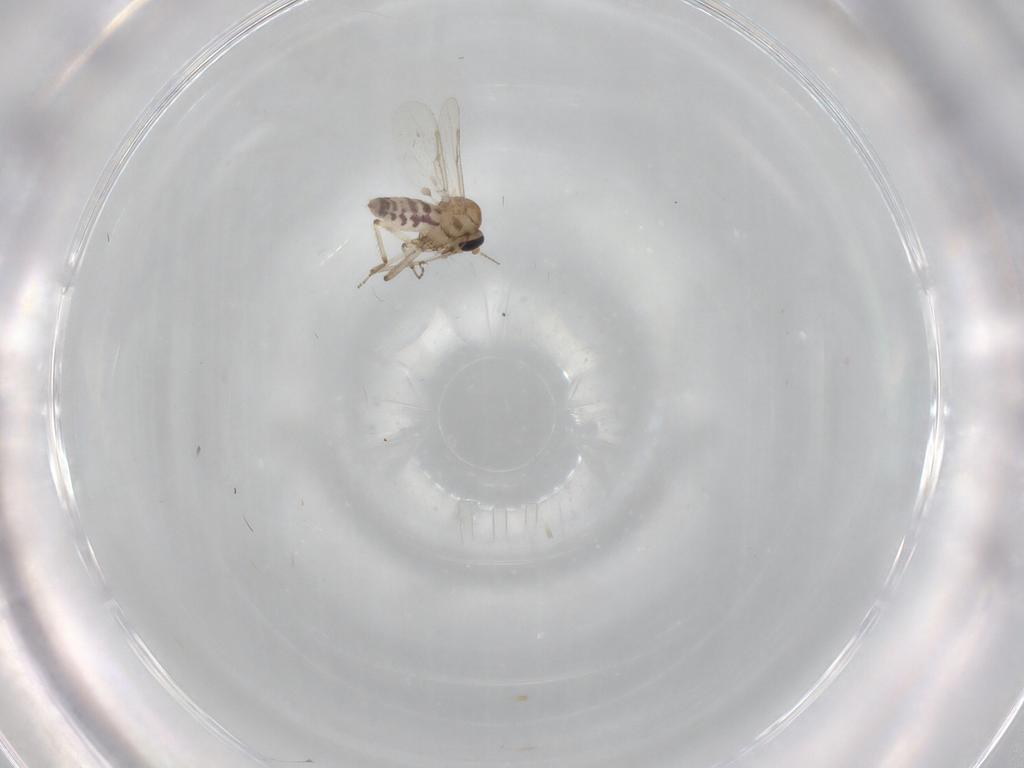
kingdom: Animalia
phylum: Arthropoda
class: Insecta
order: Diptera
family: Ceratopogonidae
